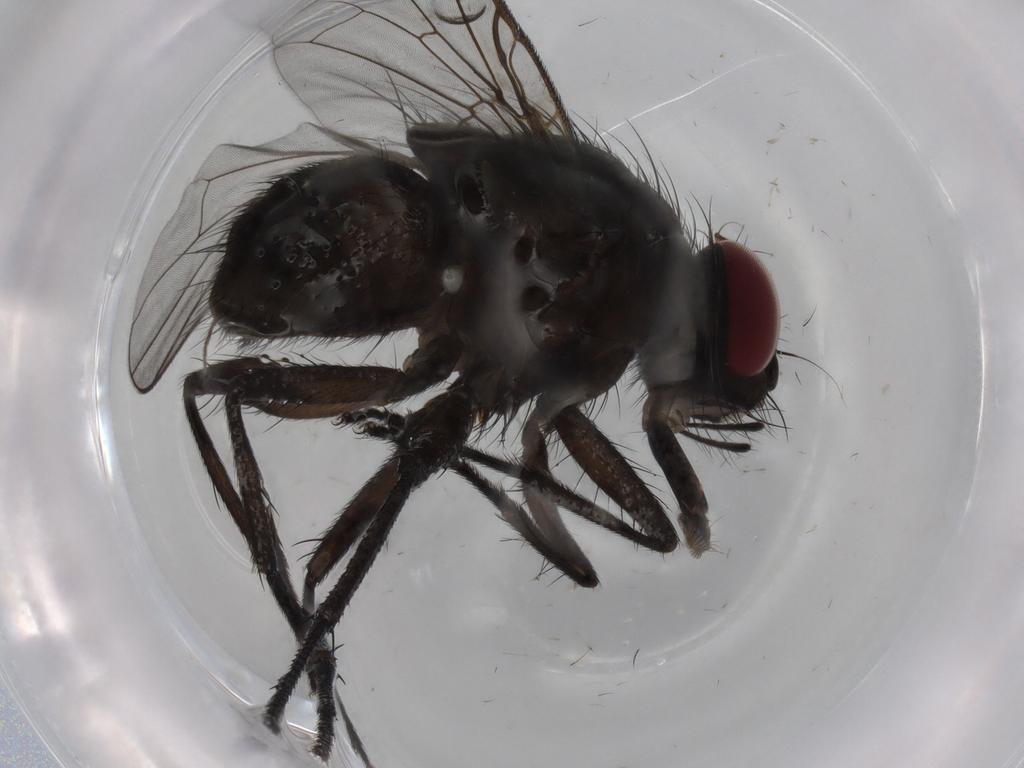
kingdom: Animalia
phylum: Arthropoda
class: Insecta
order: Diptera
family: Muscidae
